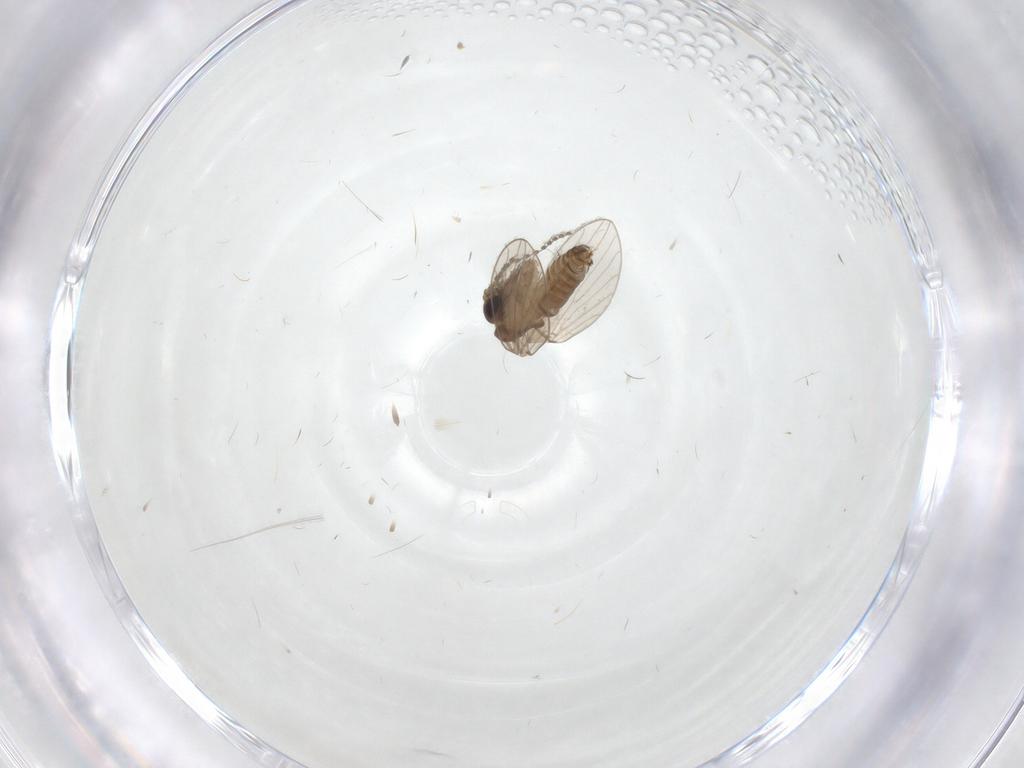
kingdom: Animalia
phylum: Arthropoda
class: Insecta
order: Diptera
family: Psychodidae
